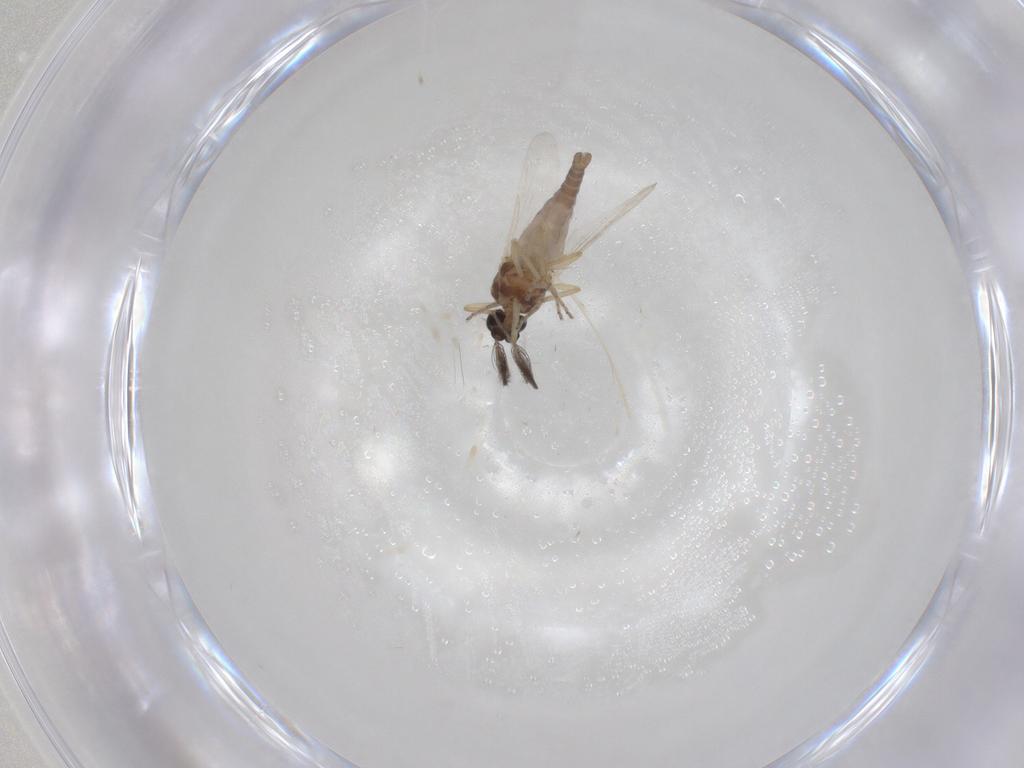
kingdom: Animalia
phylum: Arthropoda
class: Insecta
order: Diptera
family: Ceratopogonidae
